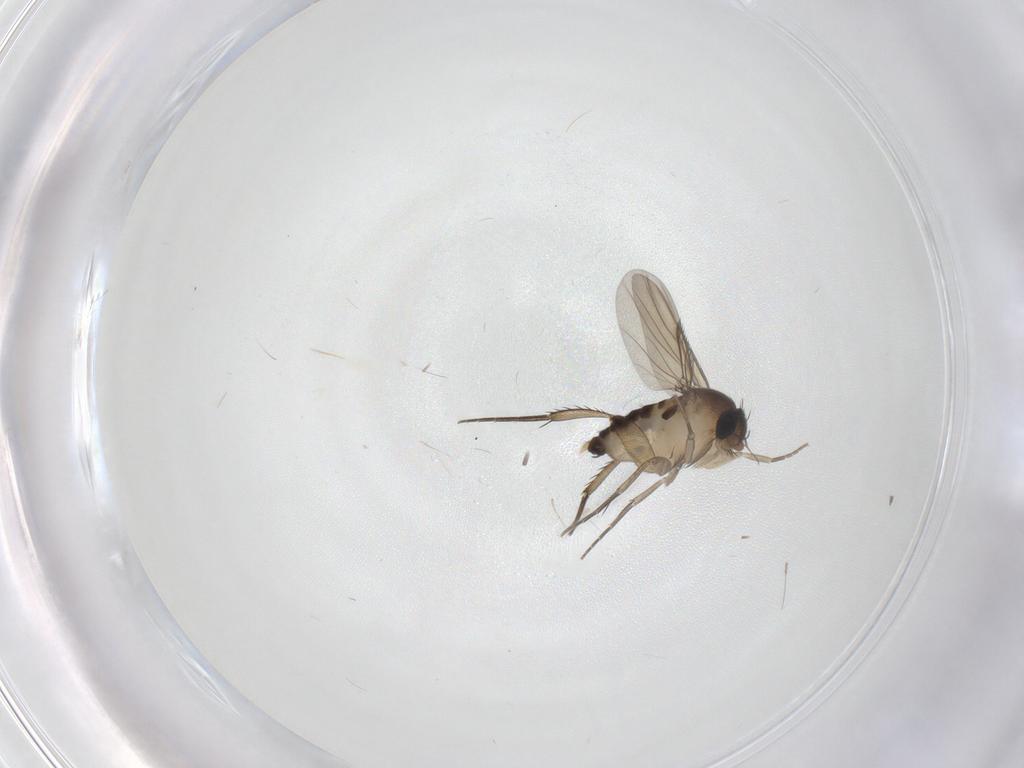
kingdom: Animalia
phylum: Arthropoda
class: Insecta
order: Diptera
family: Phoridae
